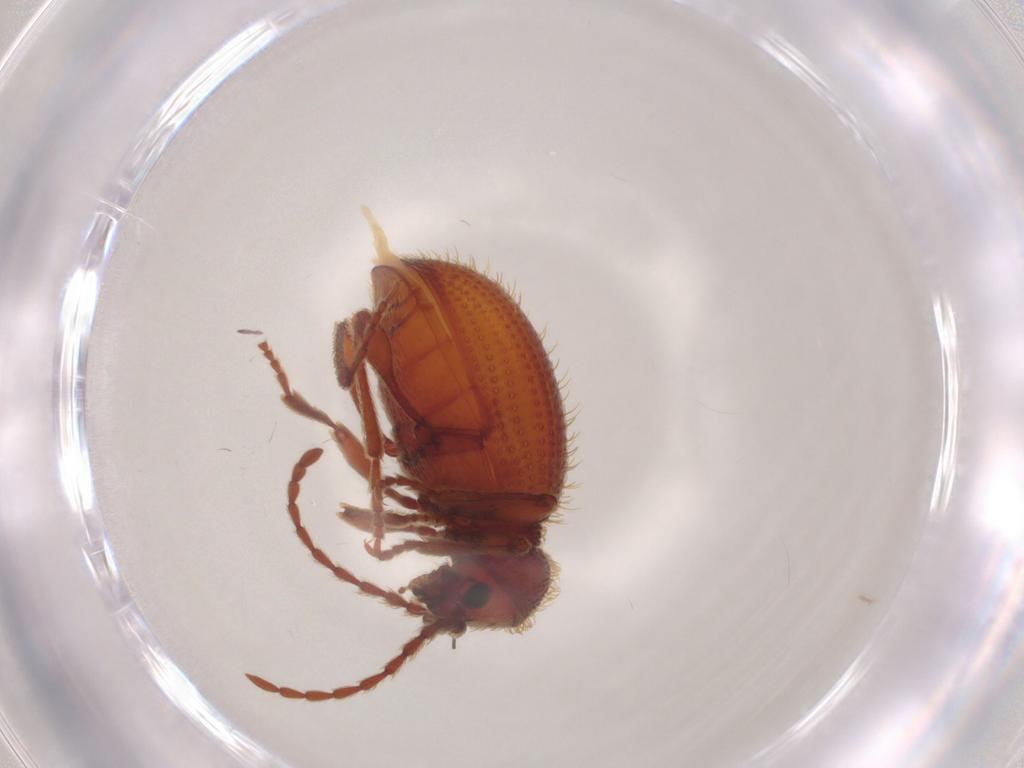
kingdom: Animalia
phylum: Arthropoda
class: Insecta
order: Coleoptera
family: Ptinidae
